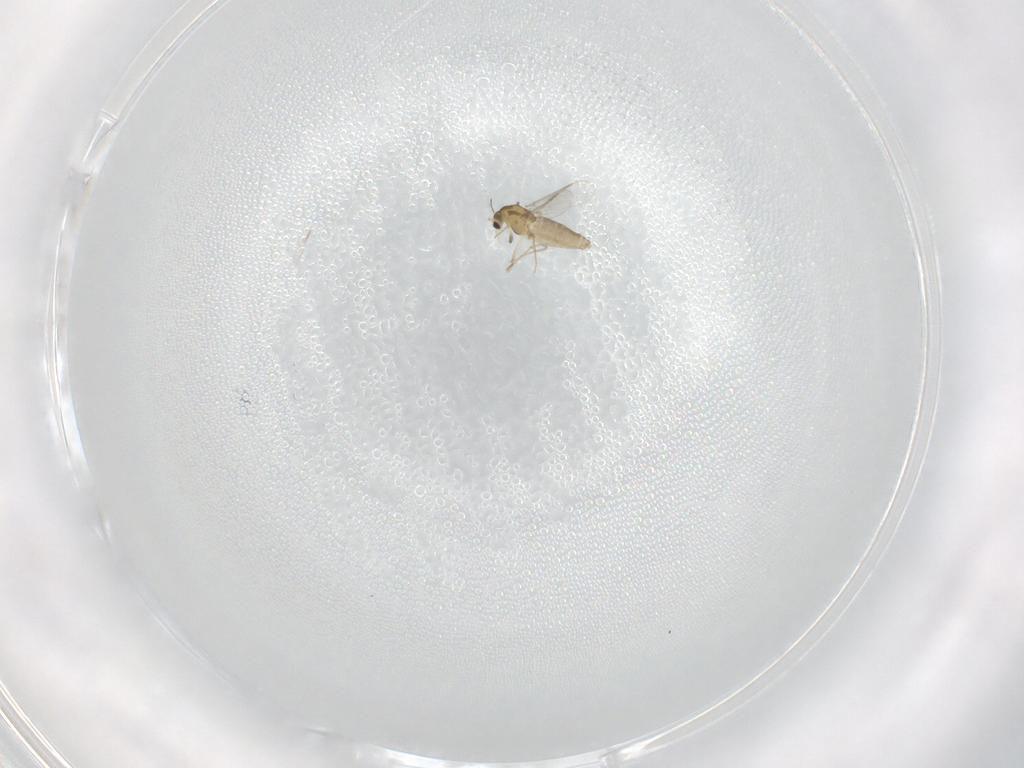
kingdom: Animalia
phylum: Arthropoda
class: Insecta
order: Diptera
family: Chironomidae
